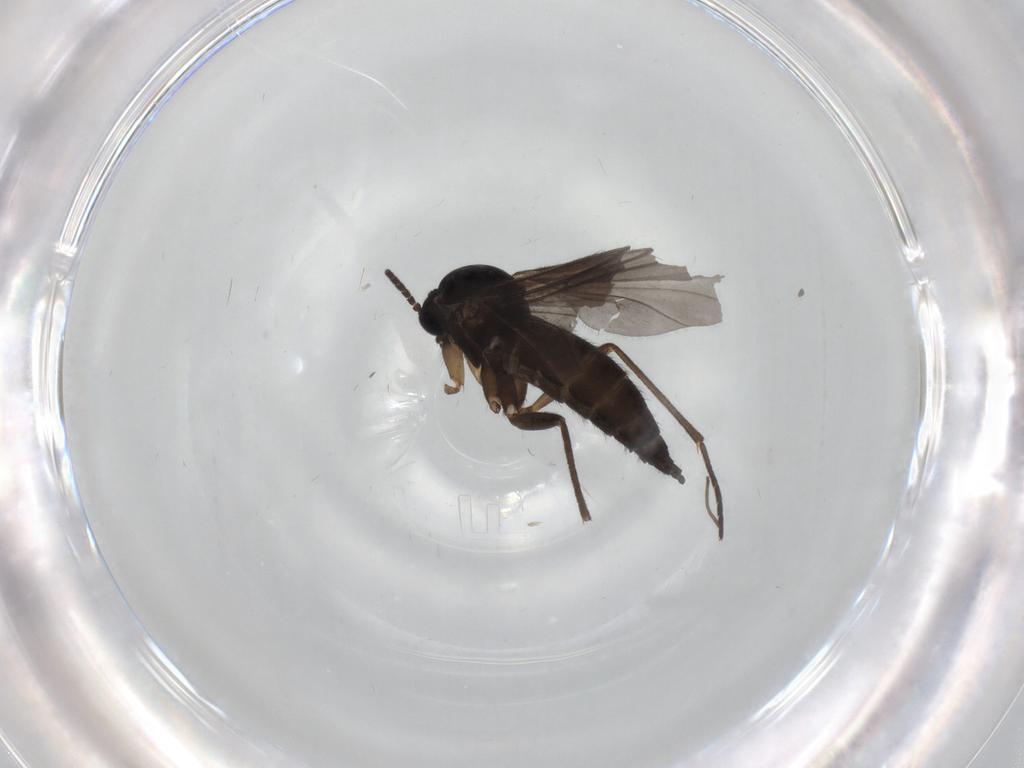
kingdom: Animalia
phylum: Arthropoda
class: Insecta
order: Diptera
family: Sciaridae
